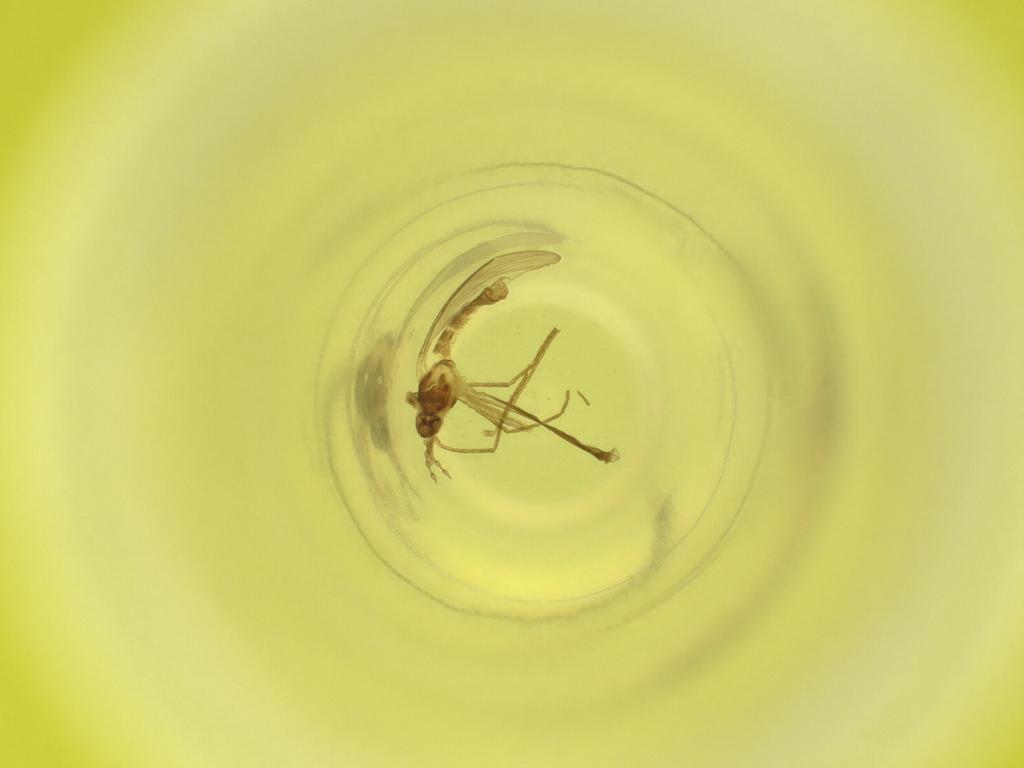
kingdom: Animalia
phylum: Arthropoda
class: Insecta
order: Diptera
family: Cecidomyiidae
